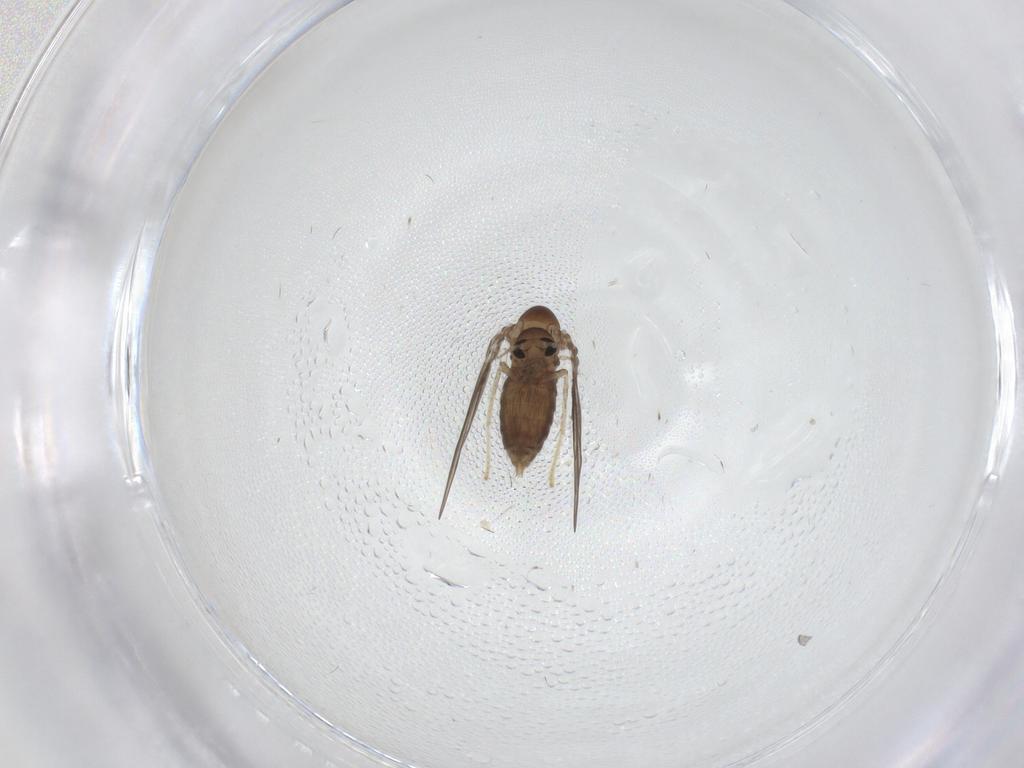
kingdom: Animalia
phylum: Arthropoda
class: Insecta
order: Diptera
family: Psychodidae
